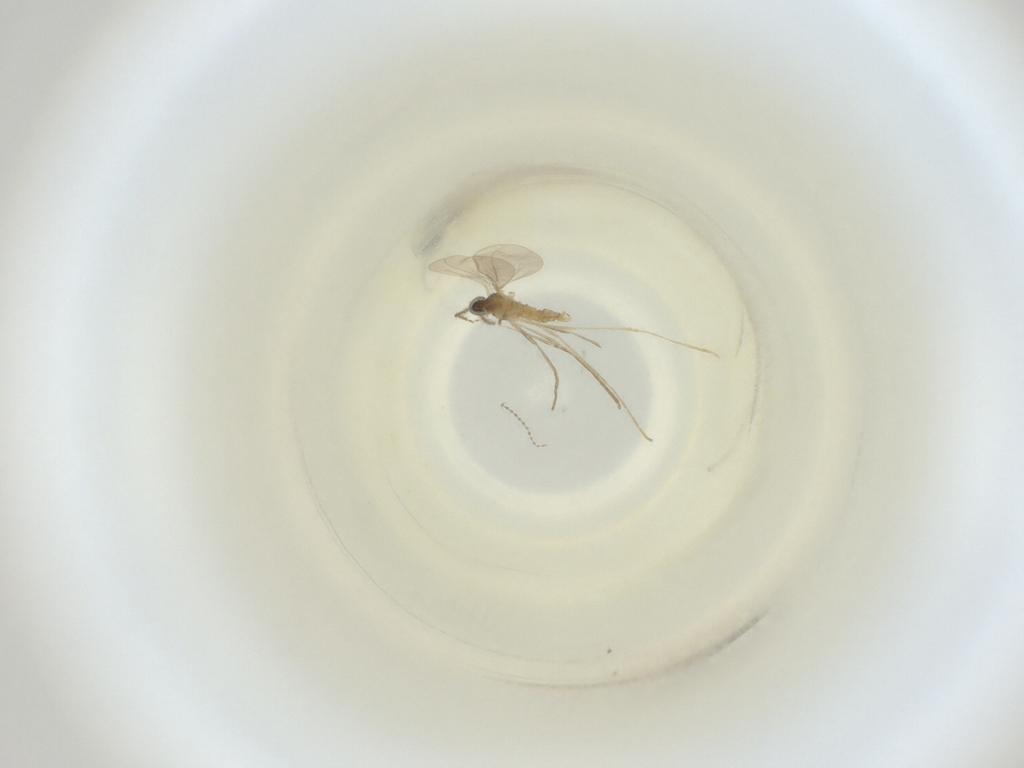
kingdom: Animalia
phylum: Arthropoda
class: Insecta
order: Diptera
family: Cecidomyiidae
